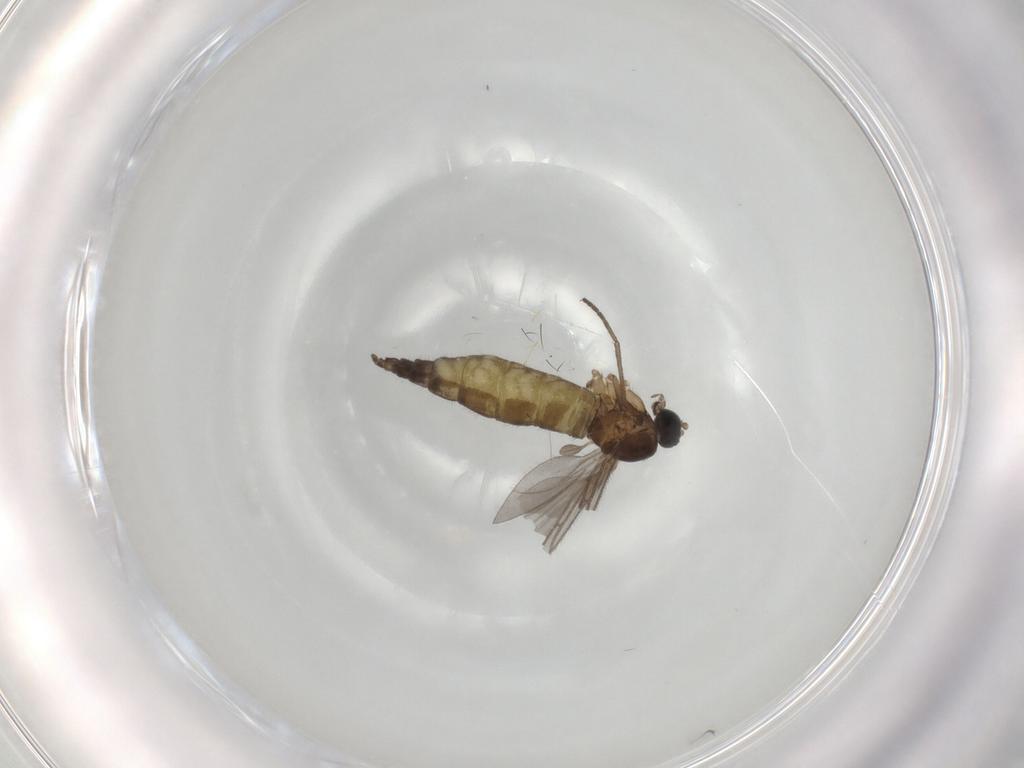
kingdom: Animalia
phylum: Arthropoda
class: Insecta
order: Diptera
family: Sciaridae
